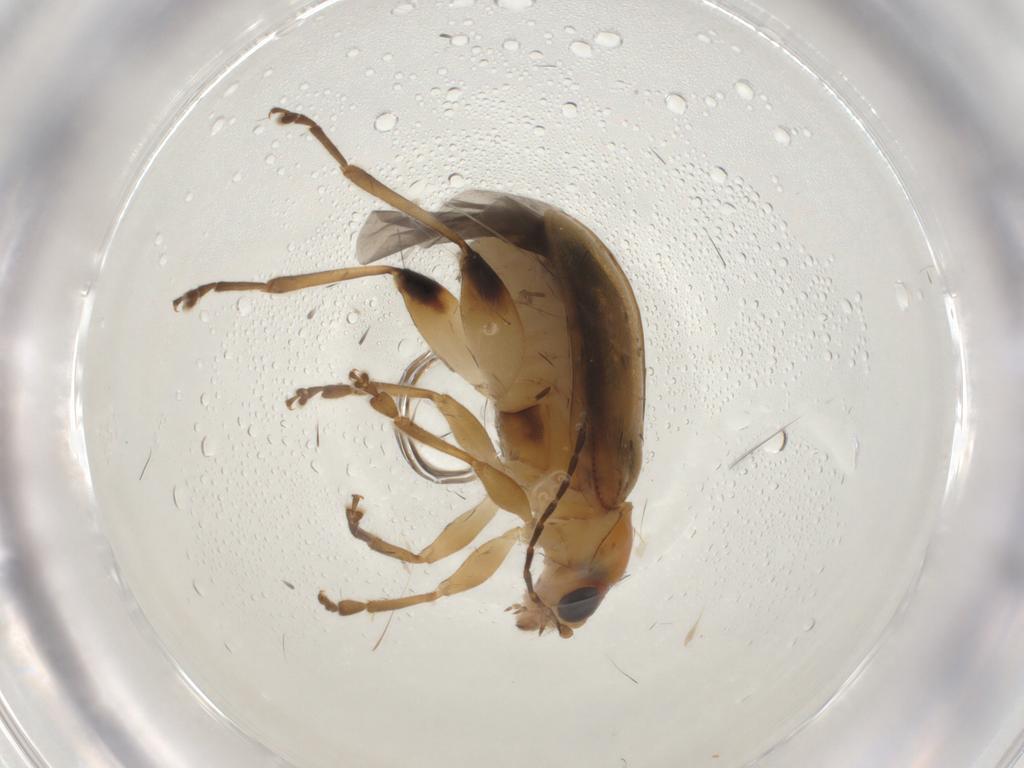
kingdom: Animalia
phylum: Arthropoda
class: Insecta
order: Coleoptera
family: Chrysomelidae
